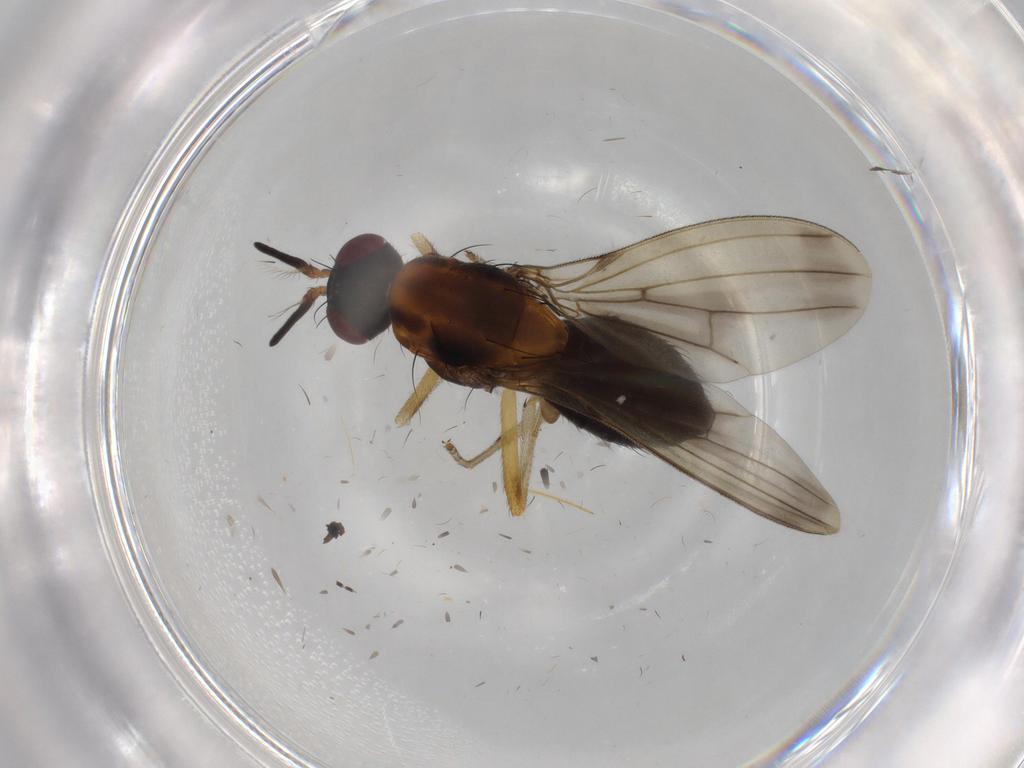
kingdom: Animalia
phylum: Arthropoda
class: Insecta
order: Diptera
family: Lauxaniidae
